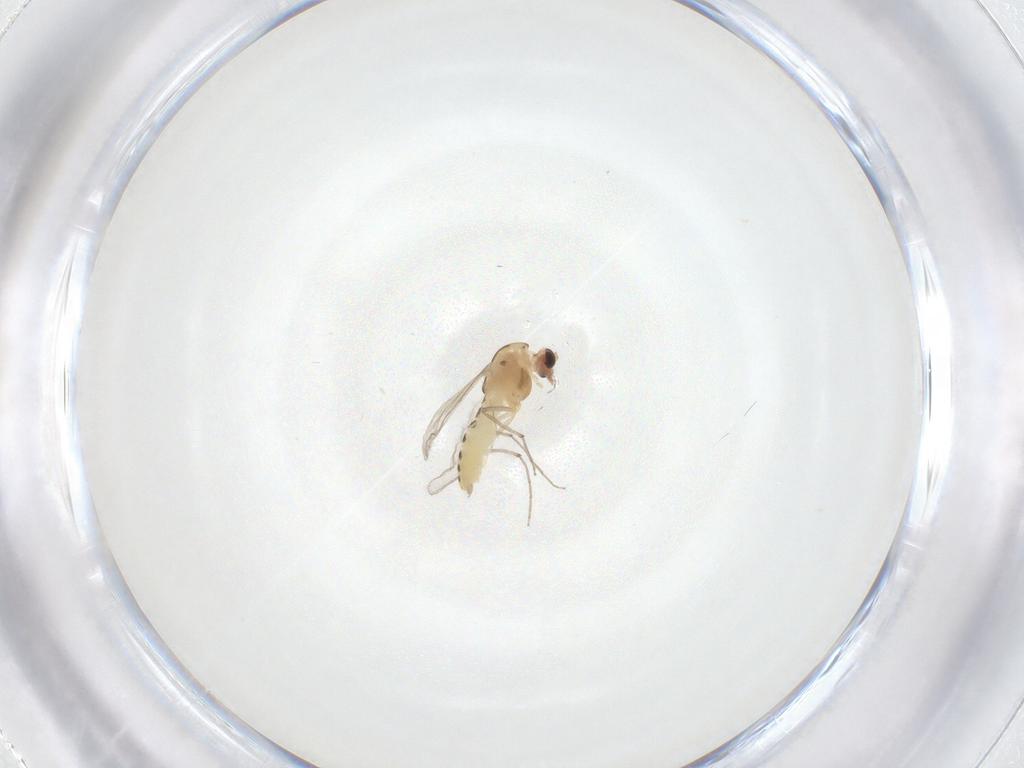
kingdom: Animalia
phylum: Arthropoda
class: Insecta
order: Diptera
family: Chironomidae
